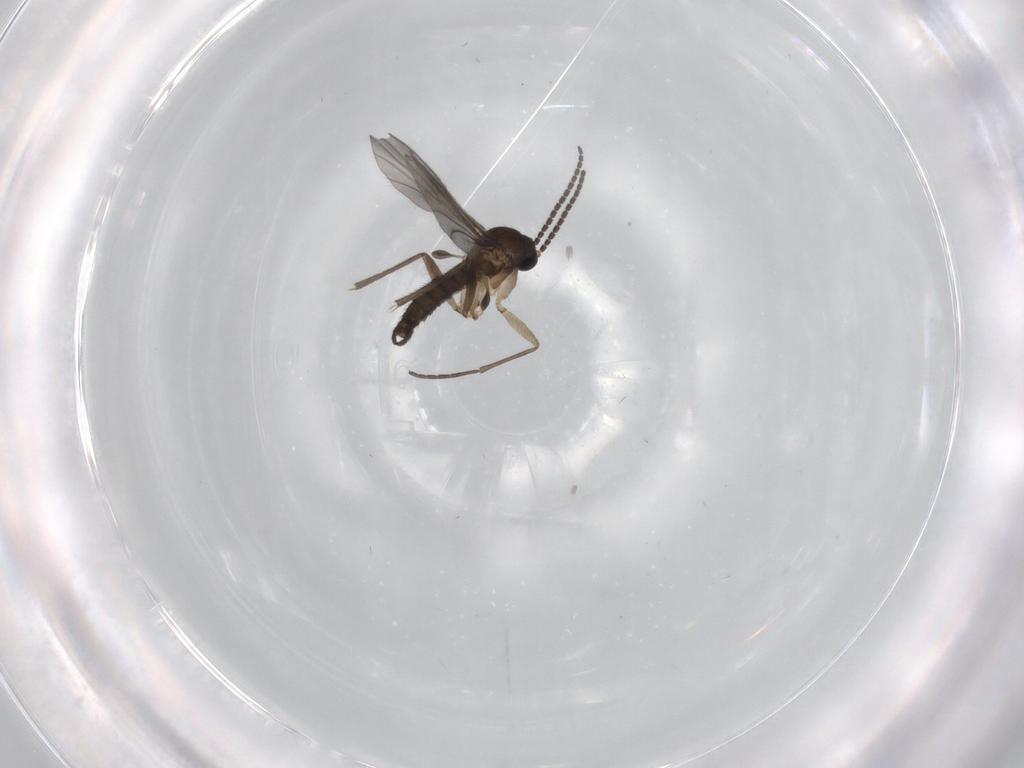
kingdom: Animalia
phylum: Arthropoda
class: Insecta
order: Diptera
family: Sciaridae
